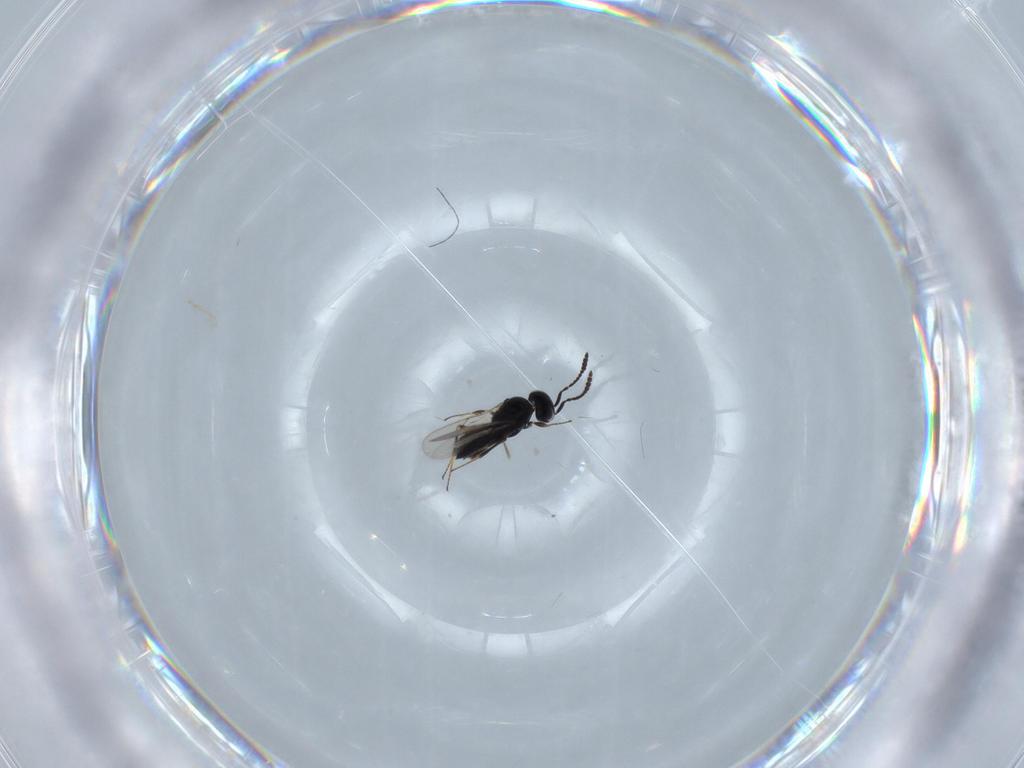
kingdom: Animalia
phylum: Arthropoda
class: Insecta
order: Hymenoptera
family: Scelionidae
